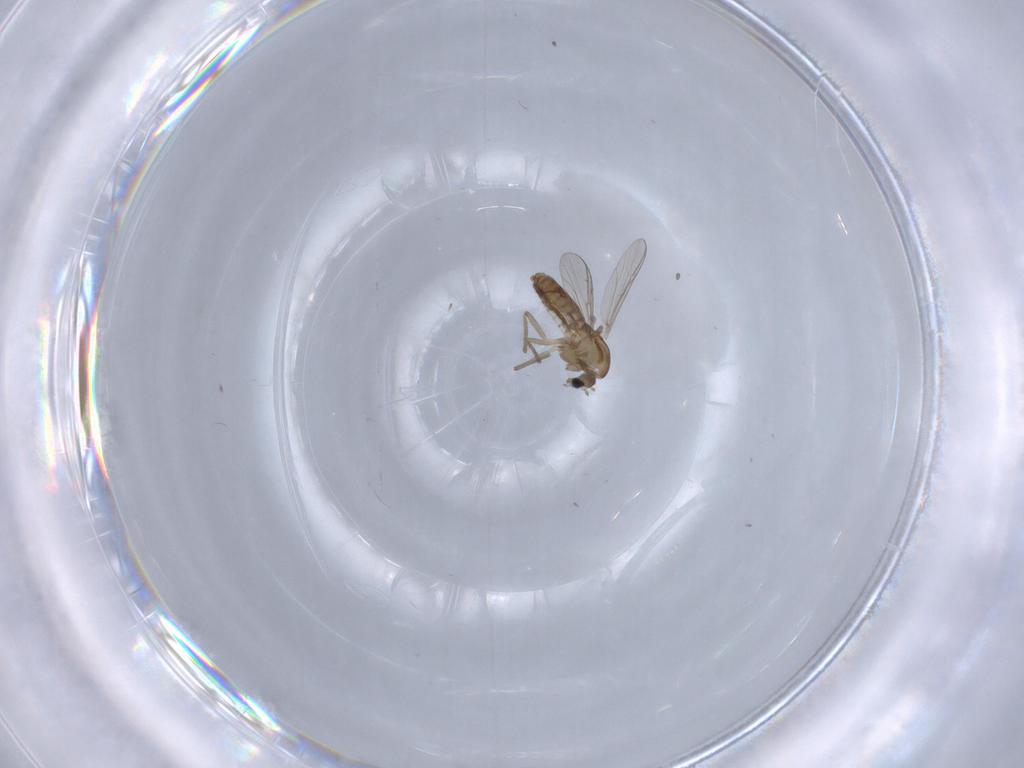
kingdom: Animalia
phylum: Arthropoda
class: Insecta
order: Diptera
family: Chironomidae
